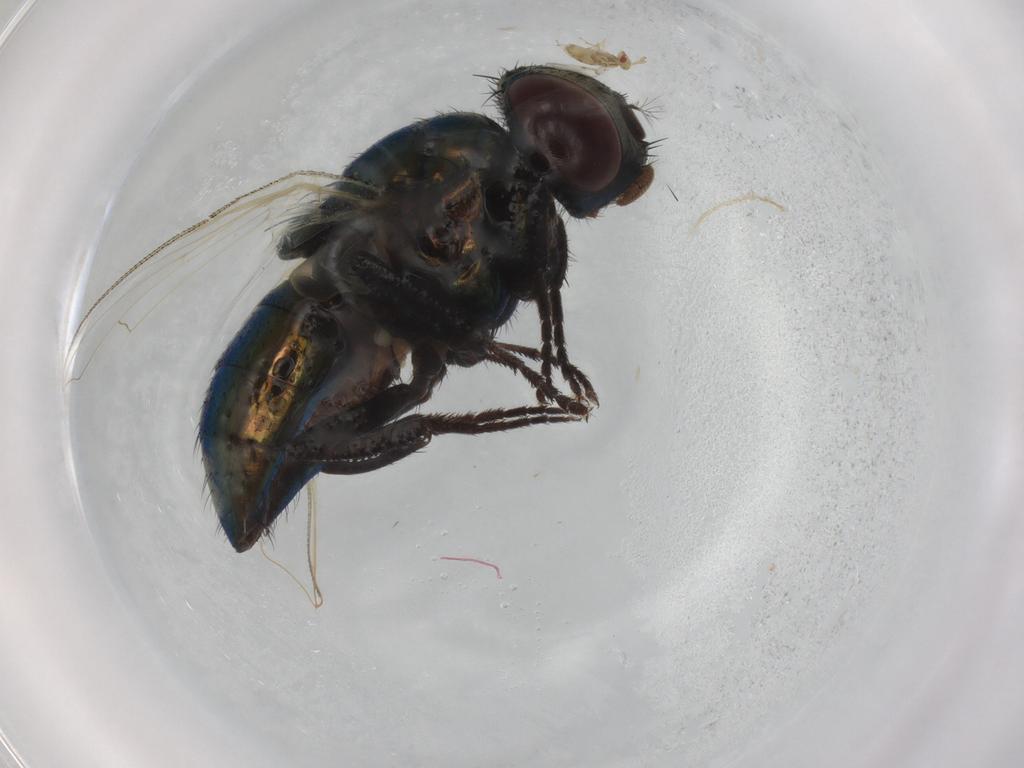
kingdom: Animalia
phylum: Arthropoda
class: Insecta
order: Diptera
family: Muscidae
